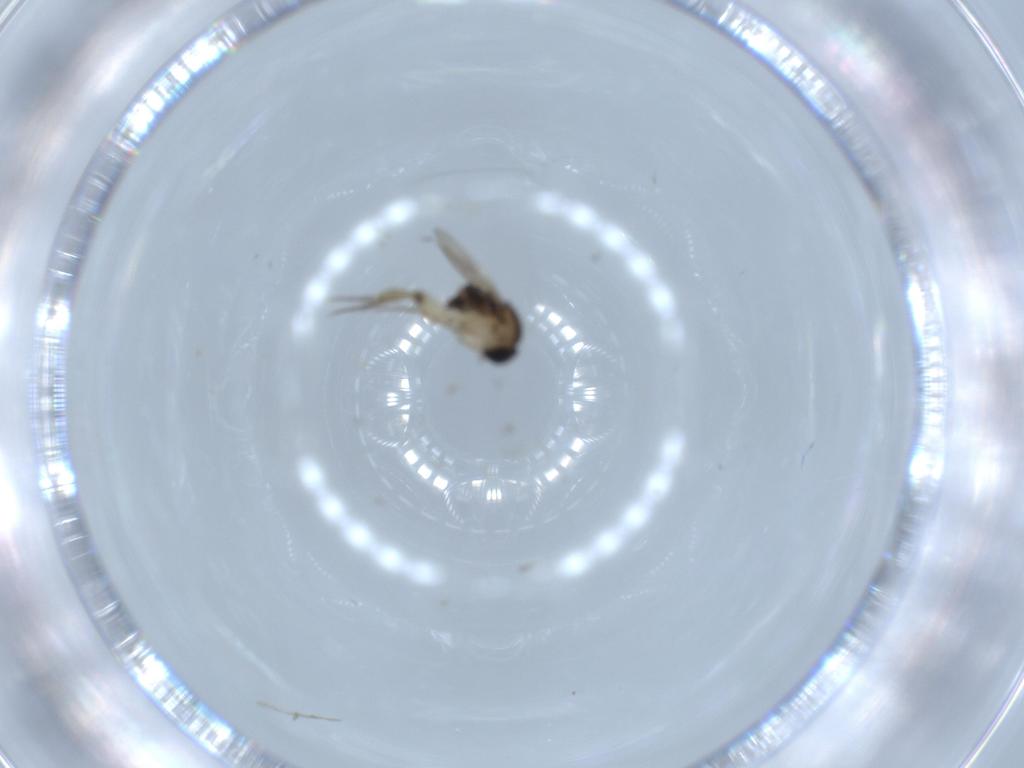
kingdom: Animalia
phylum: Arthropoda
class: Insecta
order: Diptera
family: Phoridae
